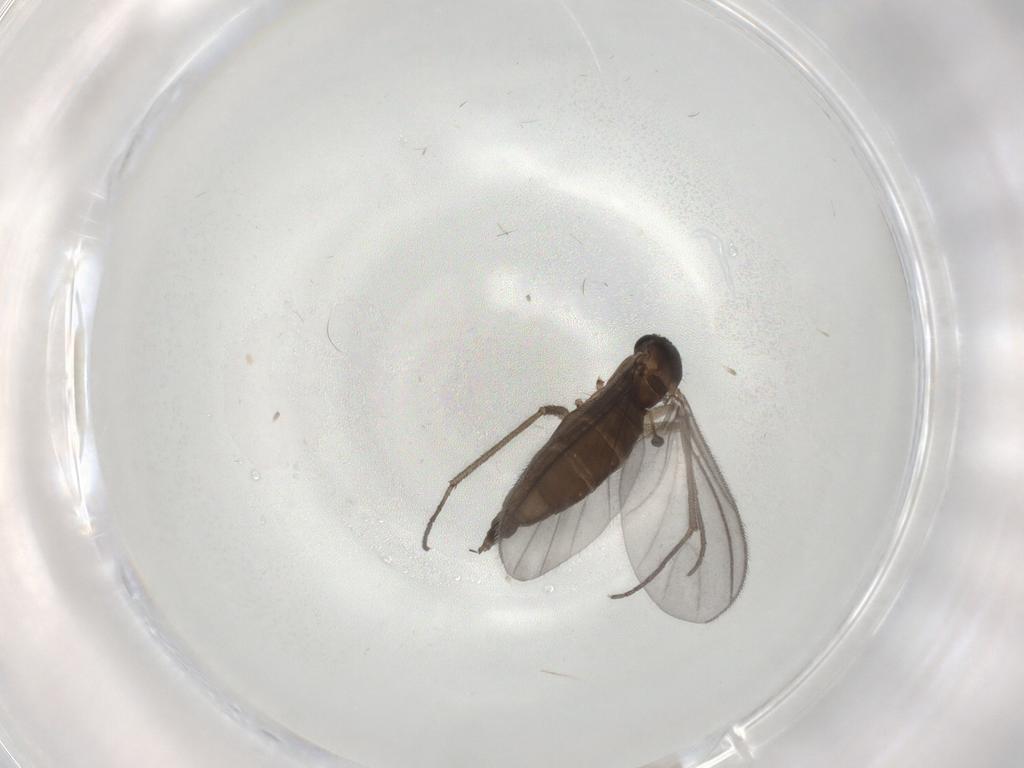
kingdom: Animalia
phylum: Arthropoda
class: Insecta
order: Diptera
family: Sciaridae
